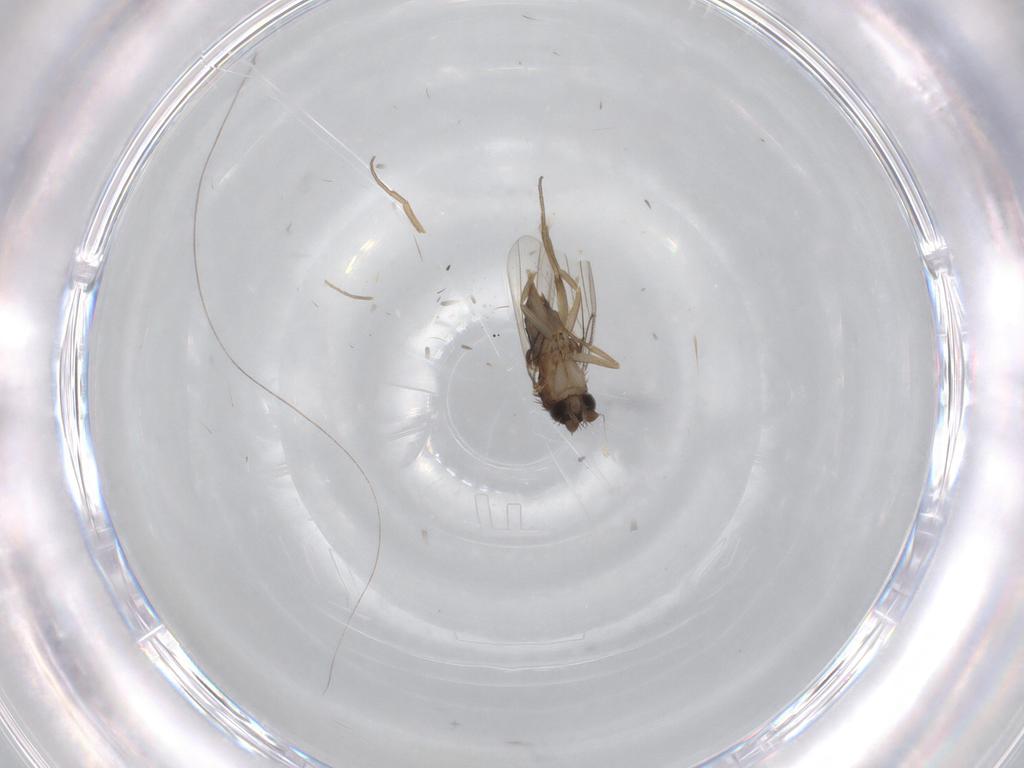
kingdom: Animalia
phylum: Arthropoda
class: Insecta
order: Diptera
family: Phoridae
